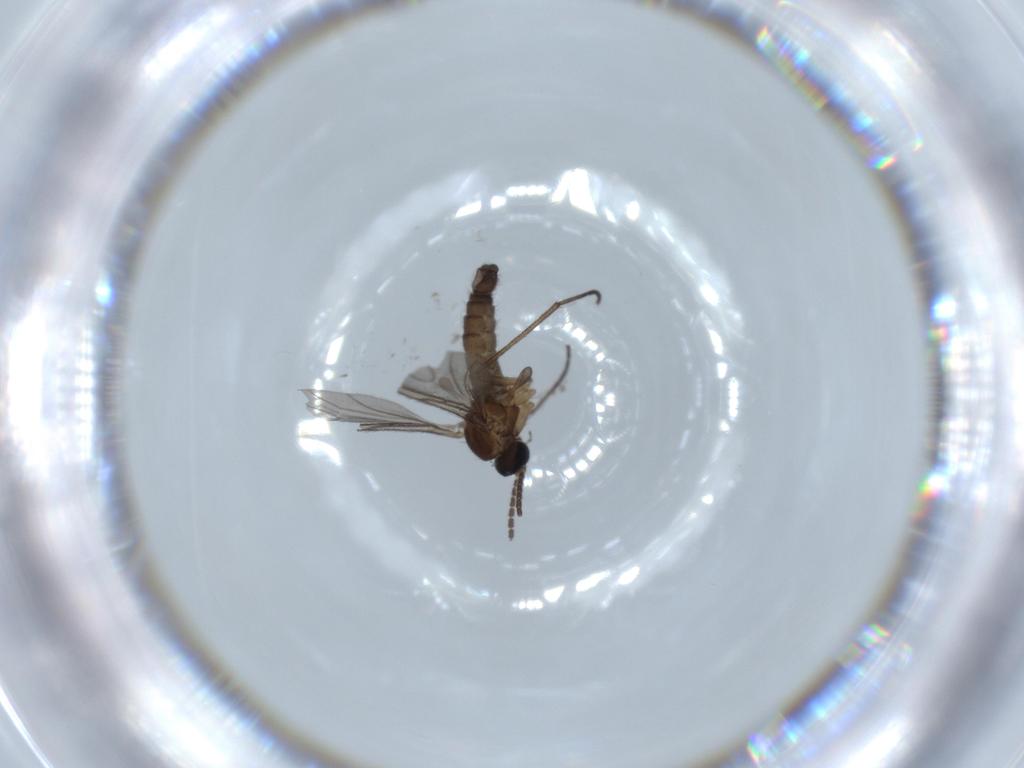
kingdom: Animalia
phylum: Arthropoda
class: Insecta
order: Diptera
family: Sciaridae
